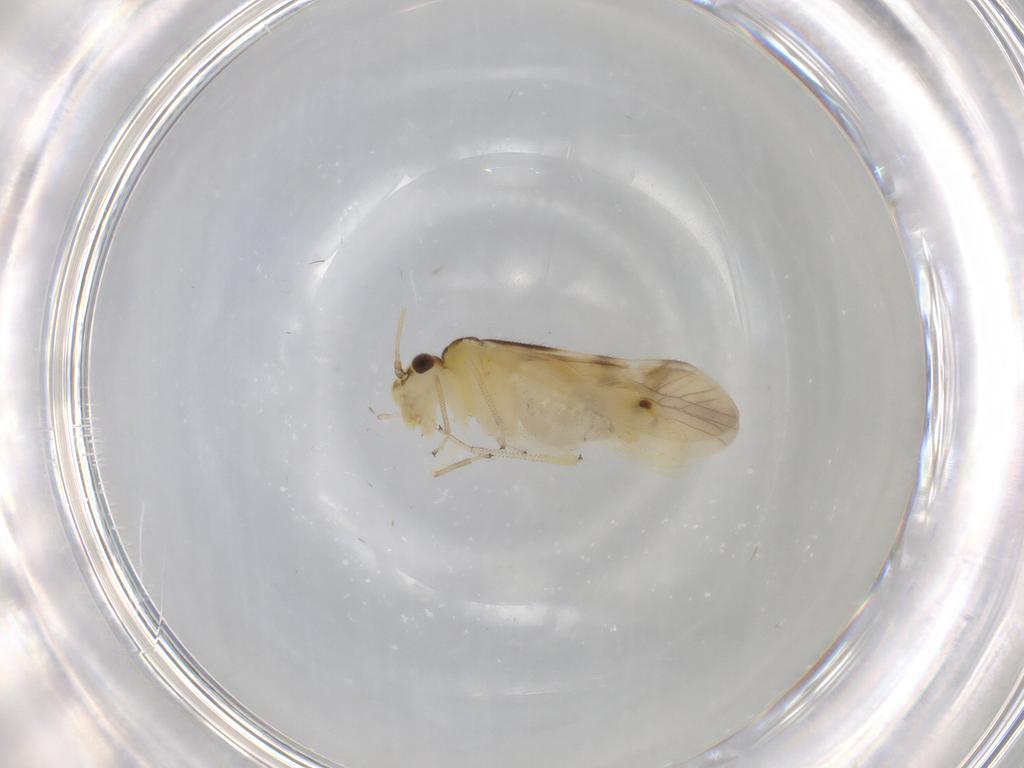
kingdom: Animalia
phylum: Arthropoda
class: Insecta
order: Psocodea
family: Caeciliusidae
